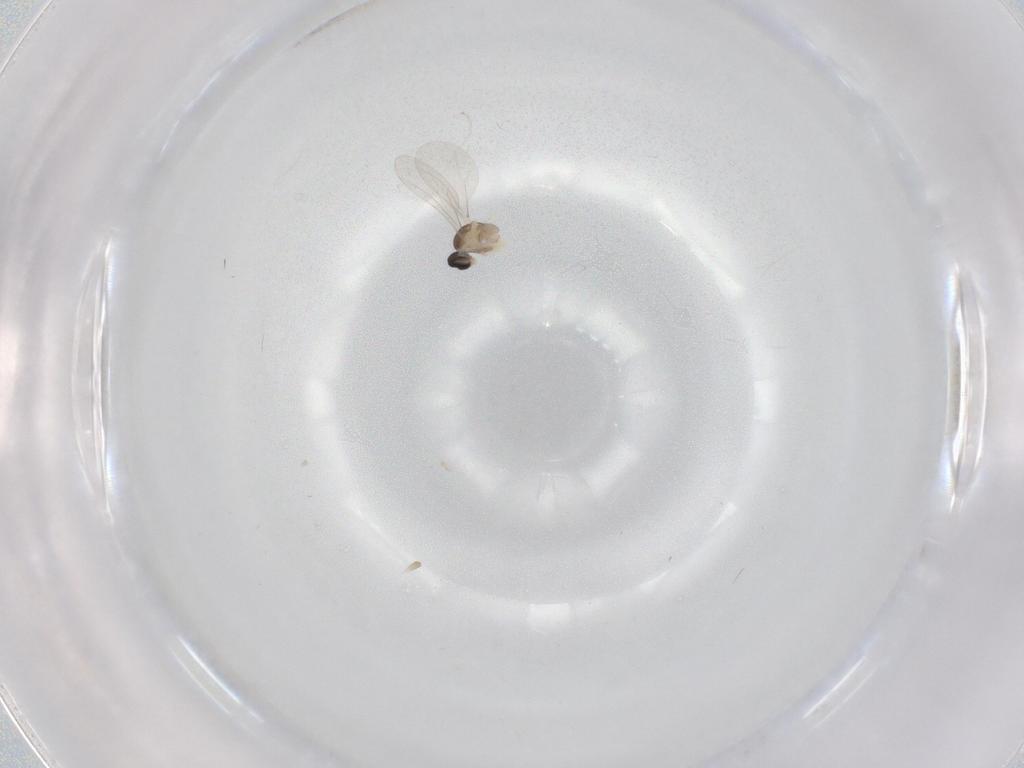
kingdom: Animalia
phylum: Arthropoda
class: Insecta
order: Diptera
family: Cecidomyiidae
